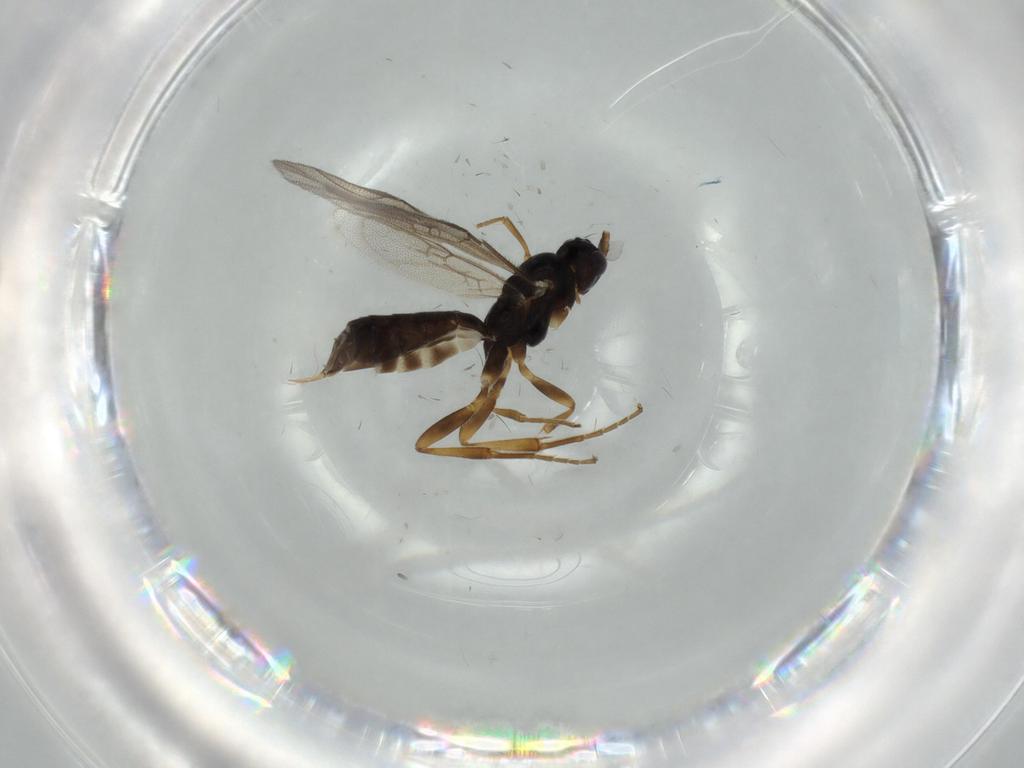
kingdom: Animalia
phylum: Arthropoda
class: Insecta
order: Hymenoptera
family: Ichneumonidae
